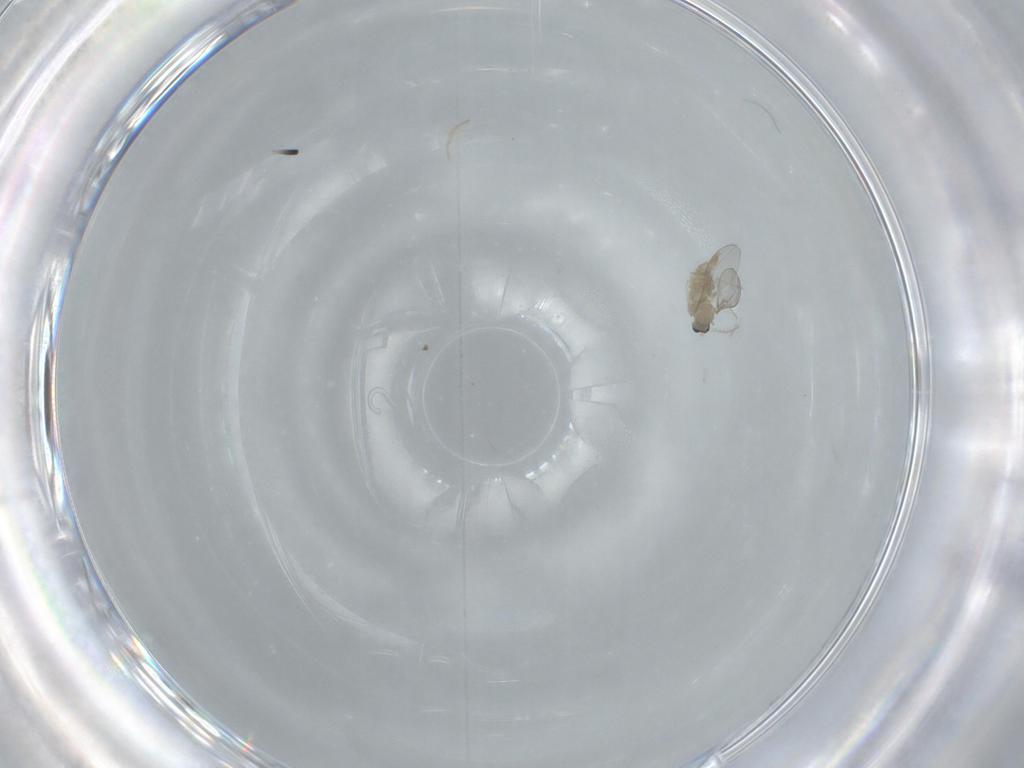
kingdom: Animalia
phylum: Arthropoda
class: Insecta
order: Diptera
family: Cecidomyiidae
